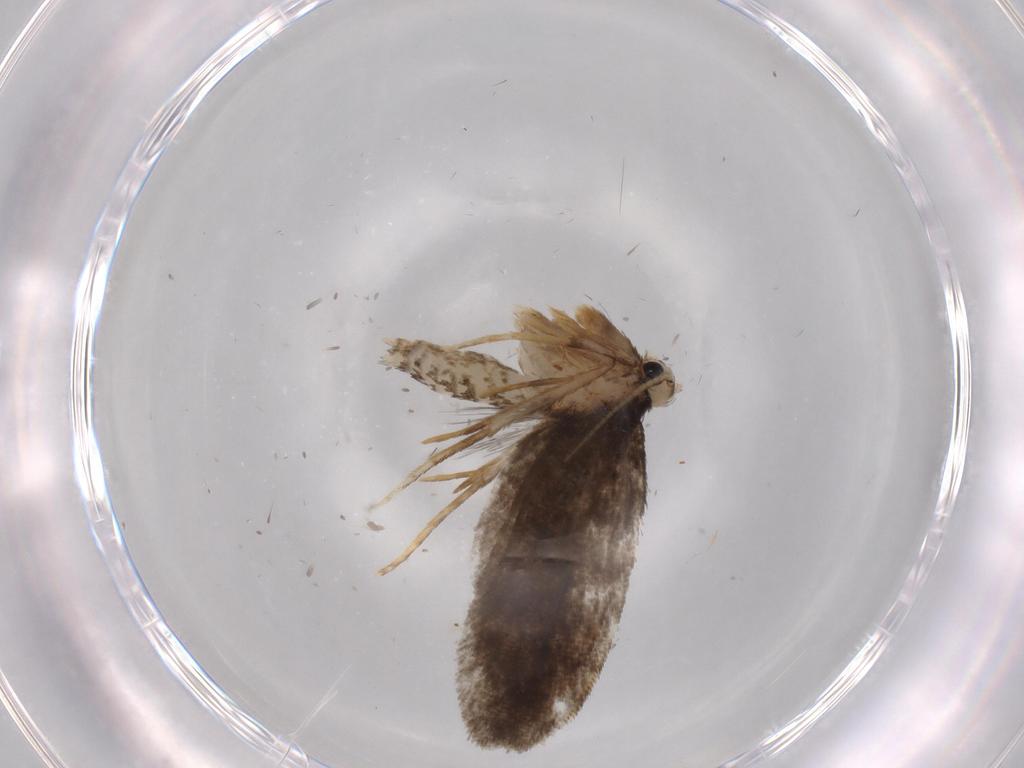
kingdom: Animalia
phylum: Arthropoda
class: Insecta
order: Lepidoptera
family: Psychidae
